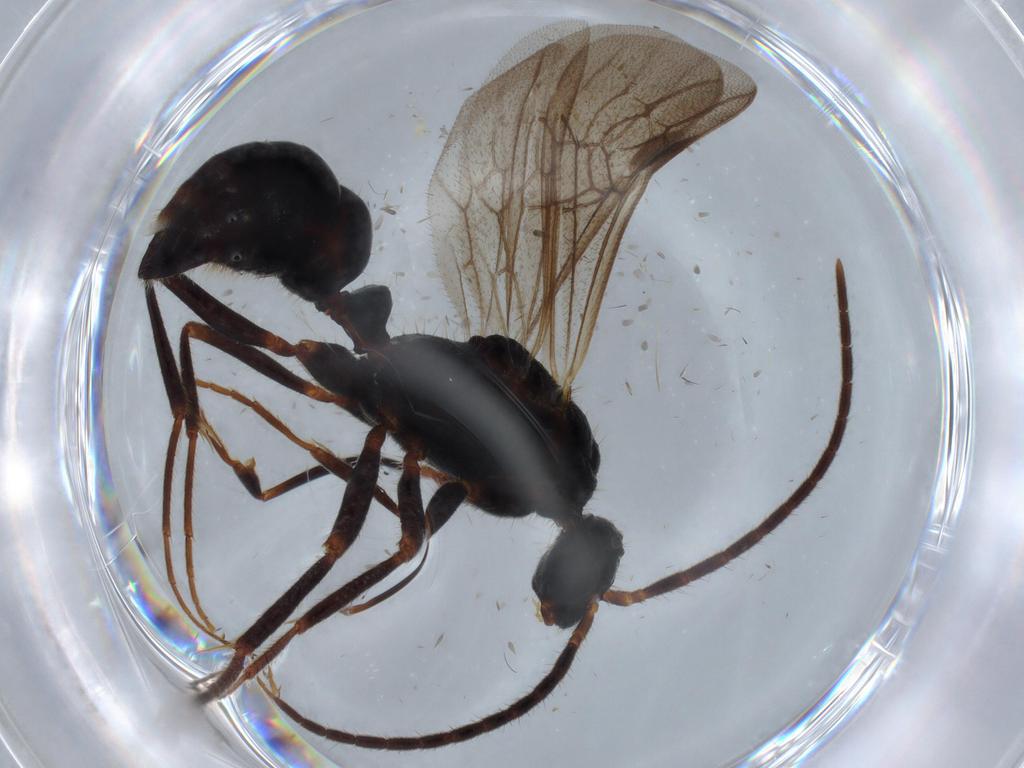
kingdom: Animalia
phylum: Arthropoda
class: Insecta
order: Hymenoptera
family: Formicidae
